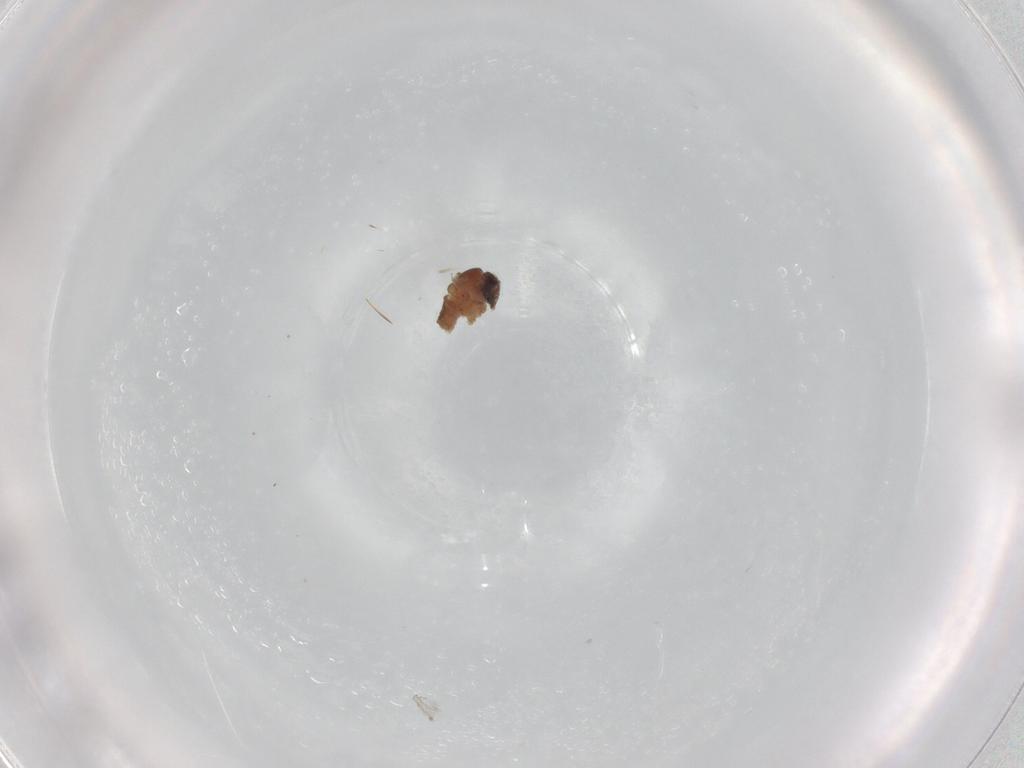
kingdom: Animalia
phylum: Arthropoda
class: Insecta
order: Diptera
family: Psychodidae
